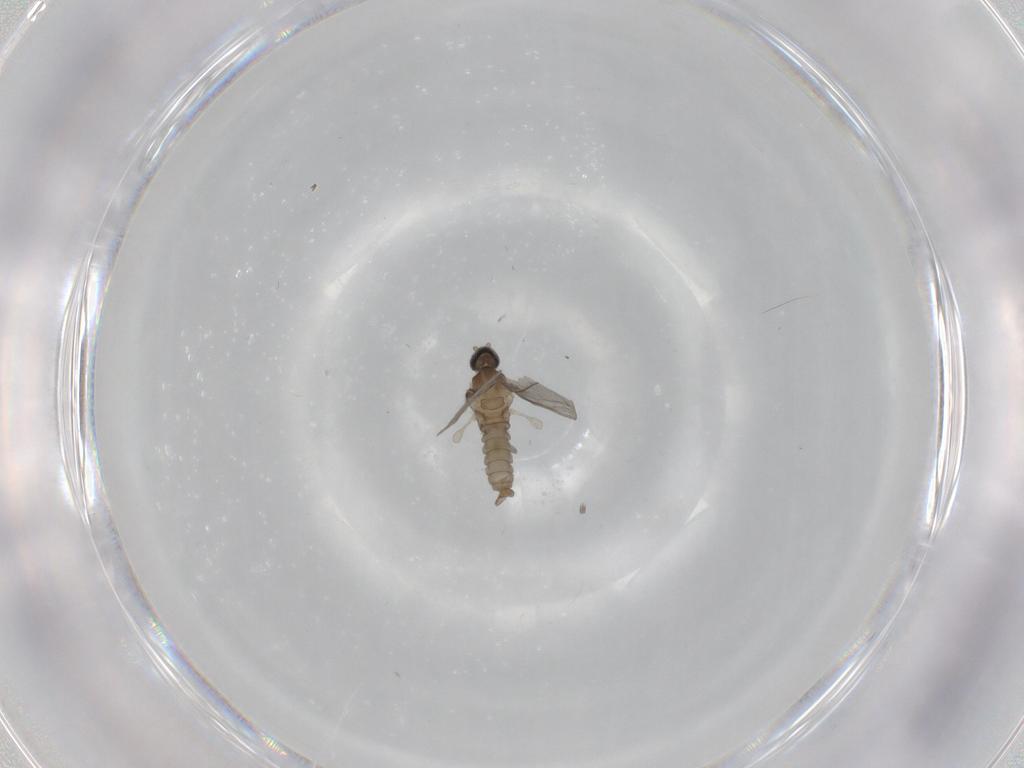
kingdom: Animalia
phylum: Arthropoda
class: Insecta
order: Diptera
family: Cecidomyiidae
